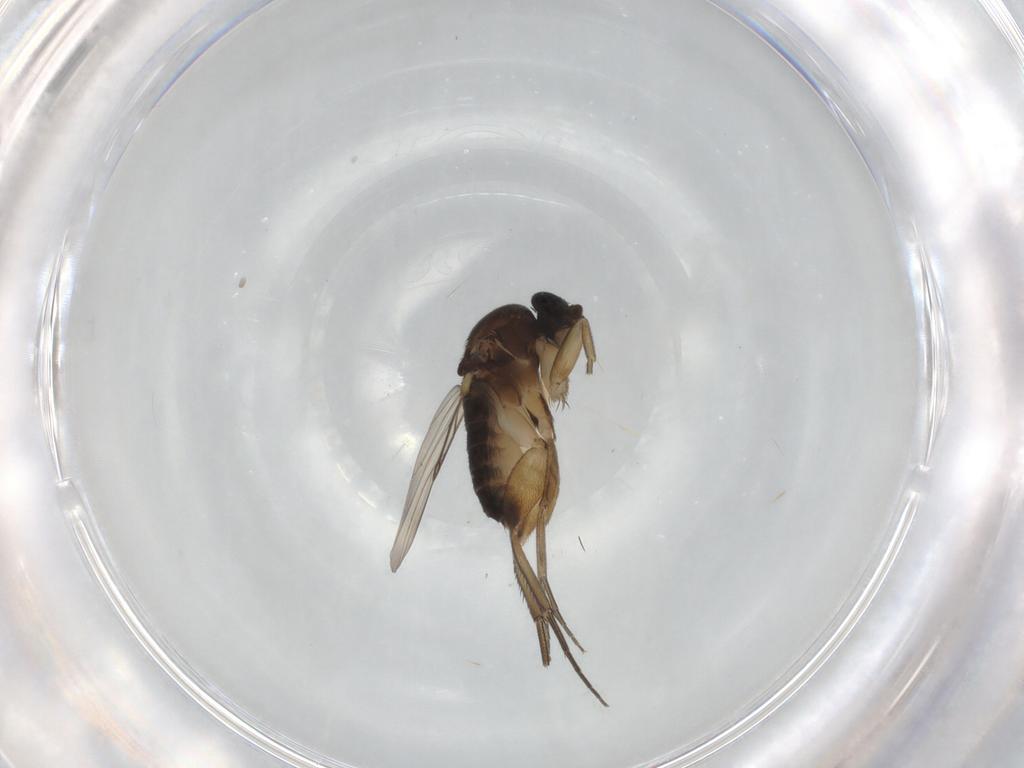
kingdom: Animalia
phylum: Arthropoda
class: Insecta
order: Diptera
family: Phoridae
